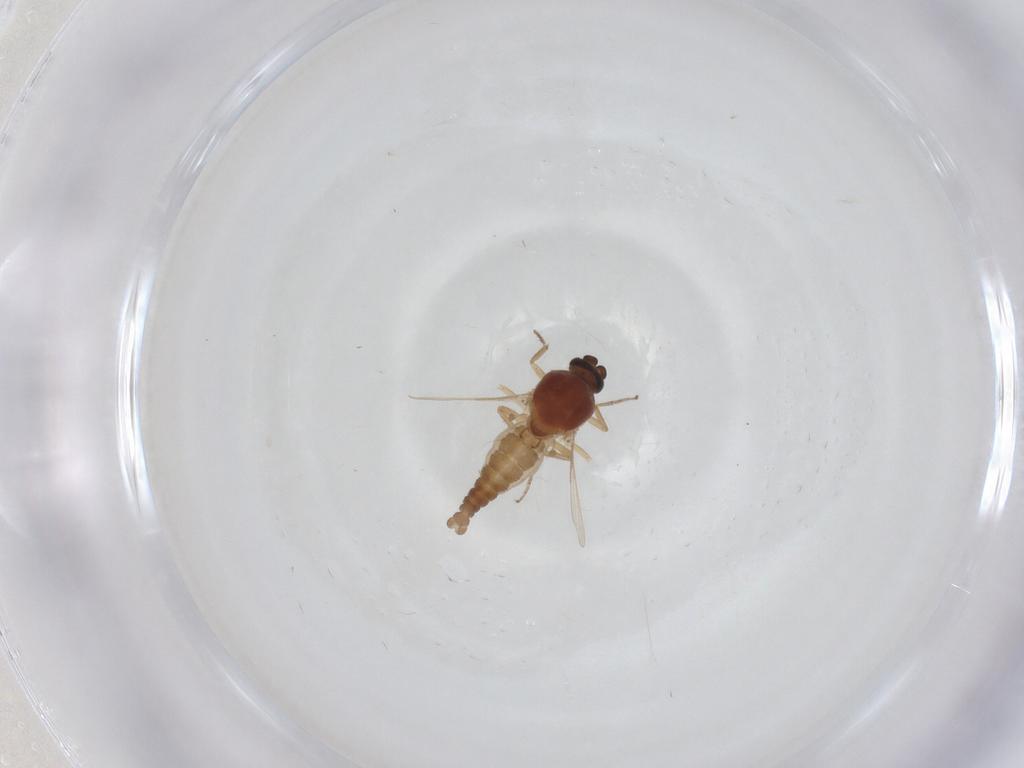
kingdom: Animalia
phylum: Arthropoda
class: Insecta
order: Diptera
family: Ceratopogonidae
